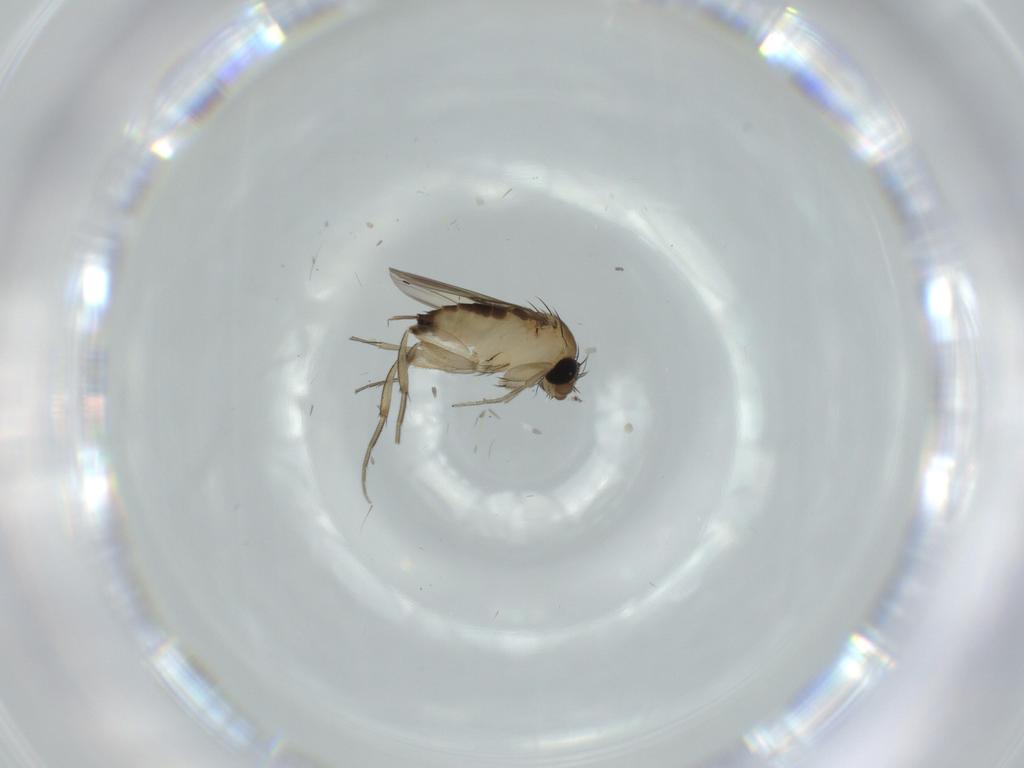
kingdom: Animalia
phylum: Arthropoda
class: Insecta
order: Diptera
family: Phoridae
